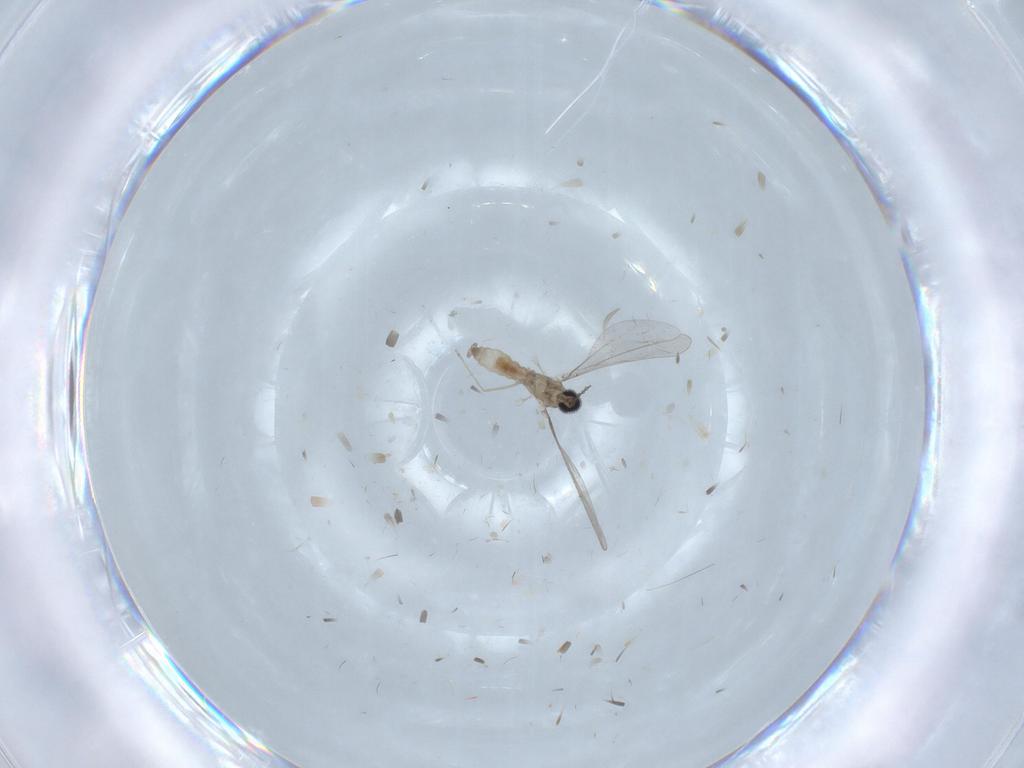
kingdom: Animalia
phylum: Arthropoda
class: Insecta
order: Diptera
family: Cecidomyiidae
